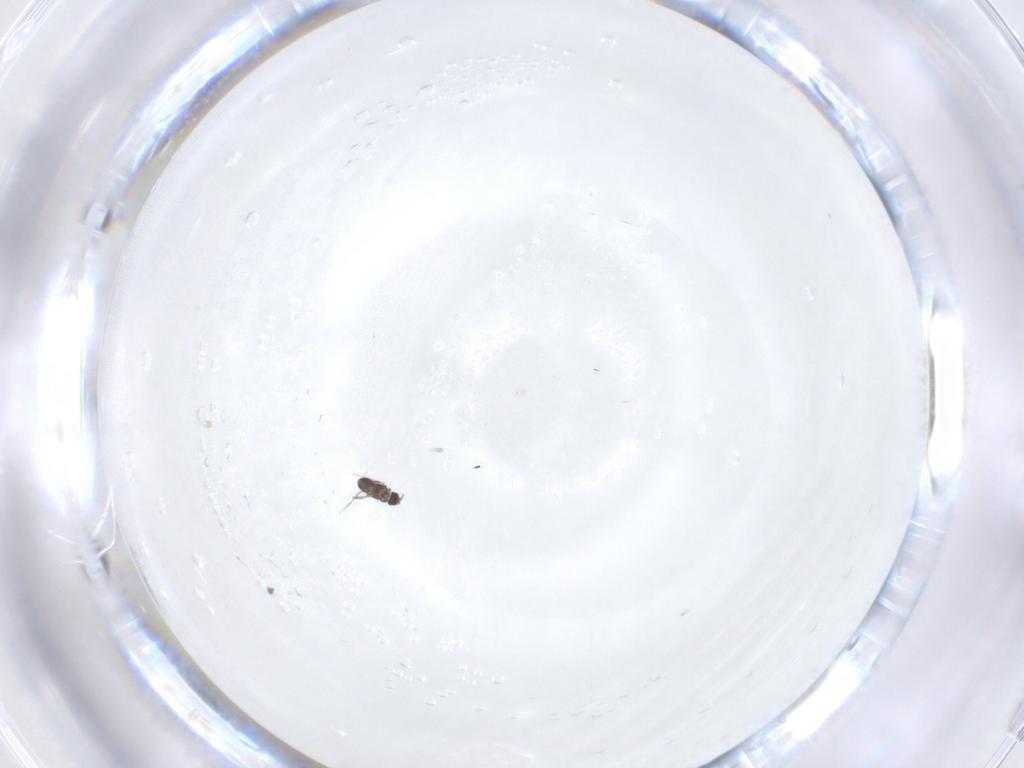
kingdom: Animalia
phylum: Arthropoda
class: Insecta
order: Hymenoptera
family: Mymaridae
